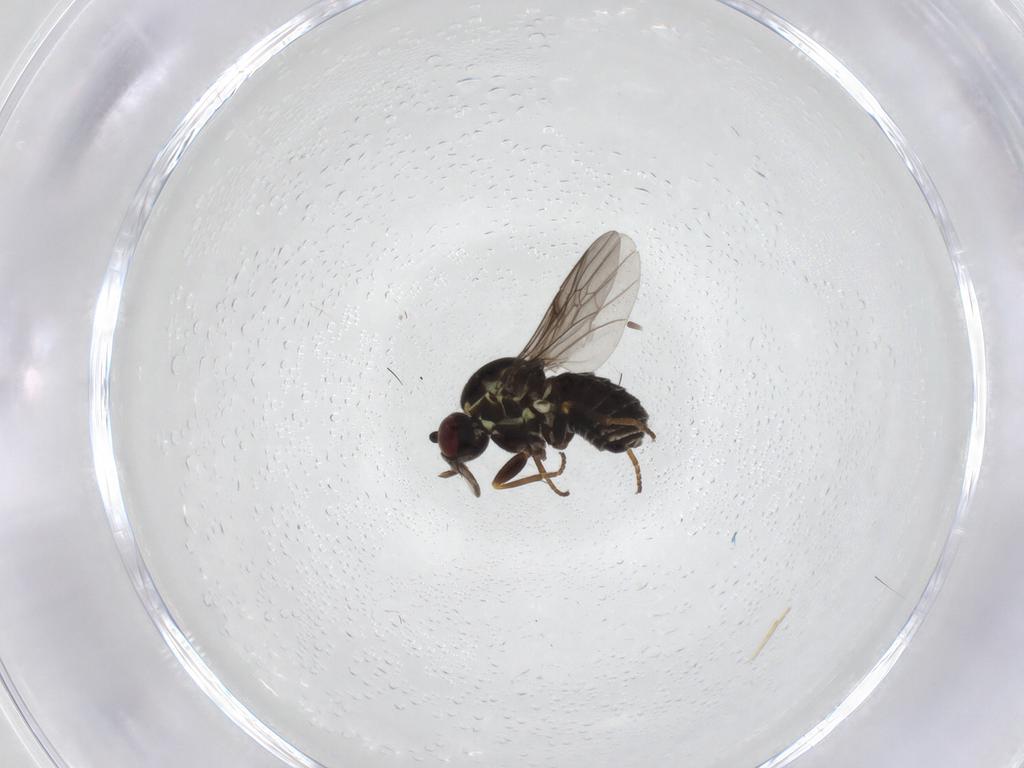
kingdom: Animalia
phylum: Arthropoda
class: Insecta
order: Diptera
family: Bombyliidae
